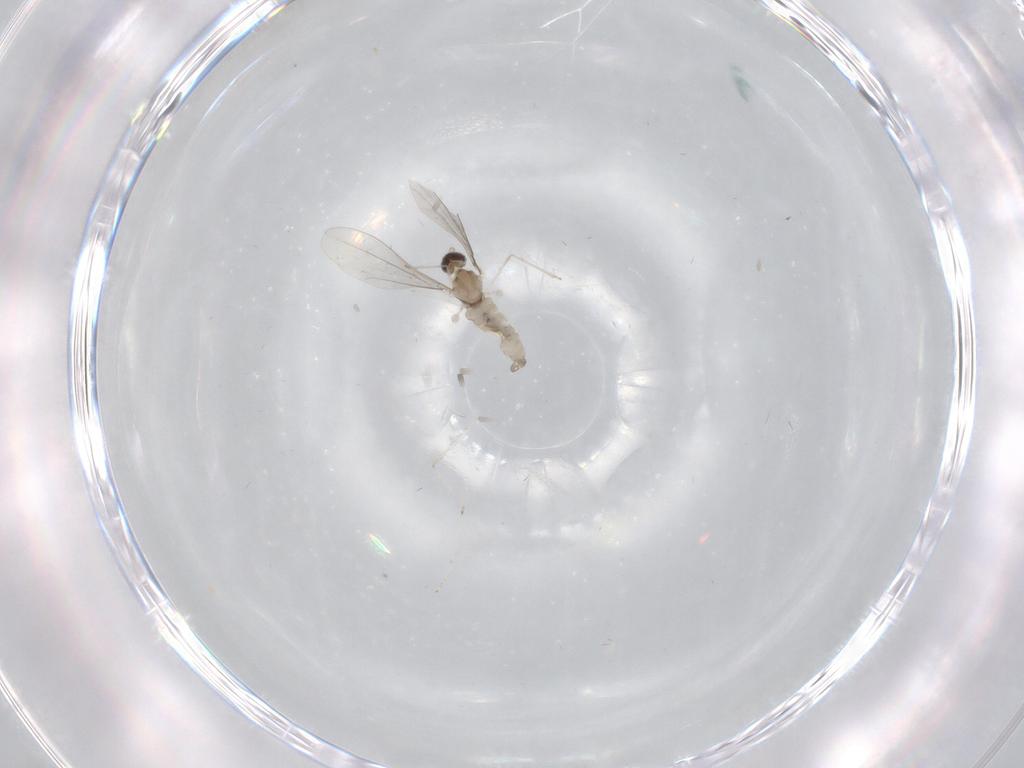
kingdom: Animalia
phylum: Arthropoda
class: Insecta
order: Diptera
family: Cecidomyiidae
